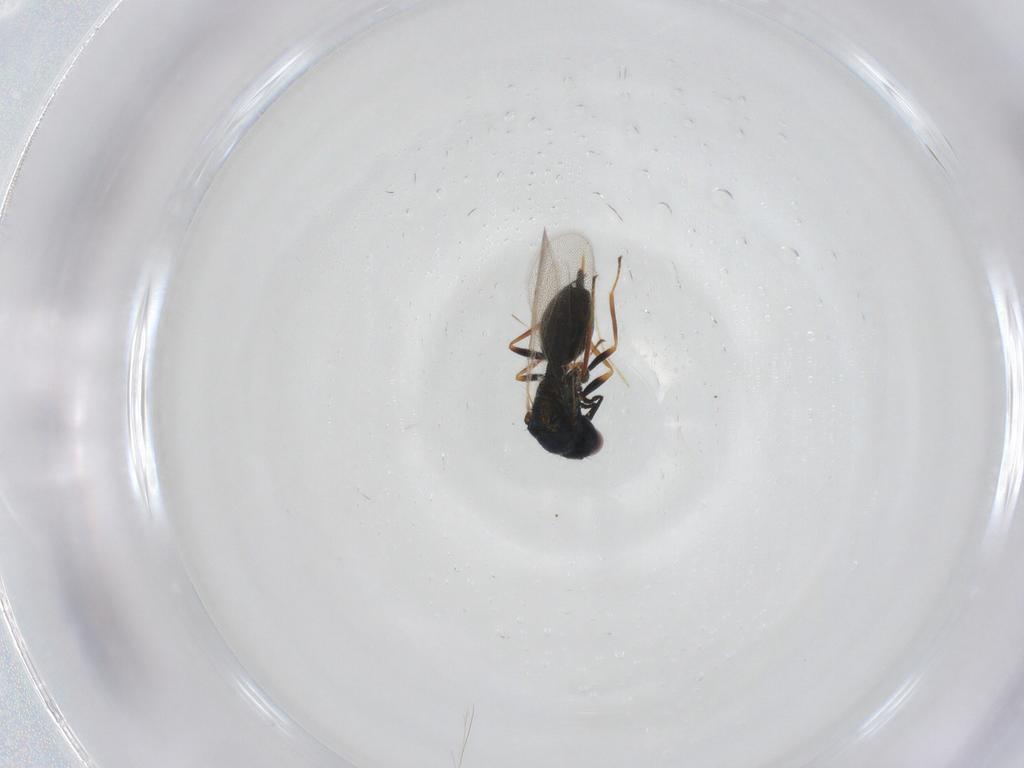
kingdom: Animalia
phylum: Arthropoda
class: Insecta
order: Hymenoptera
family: Chalcidoidea_incertae_sedis
